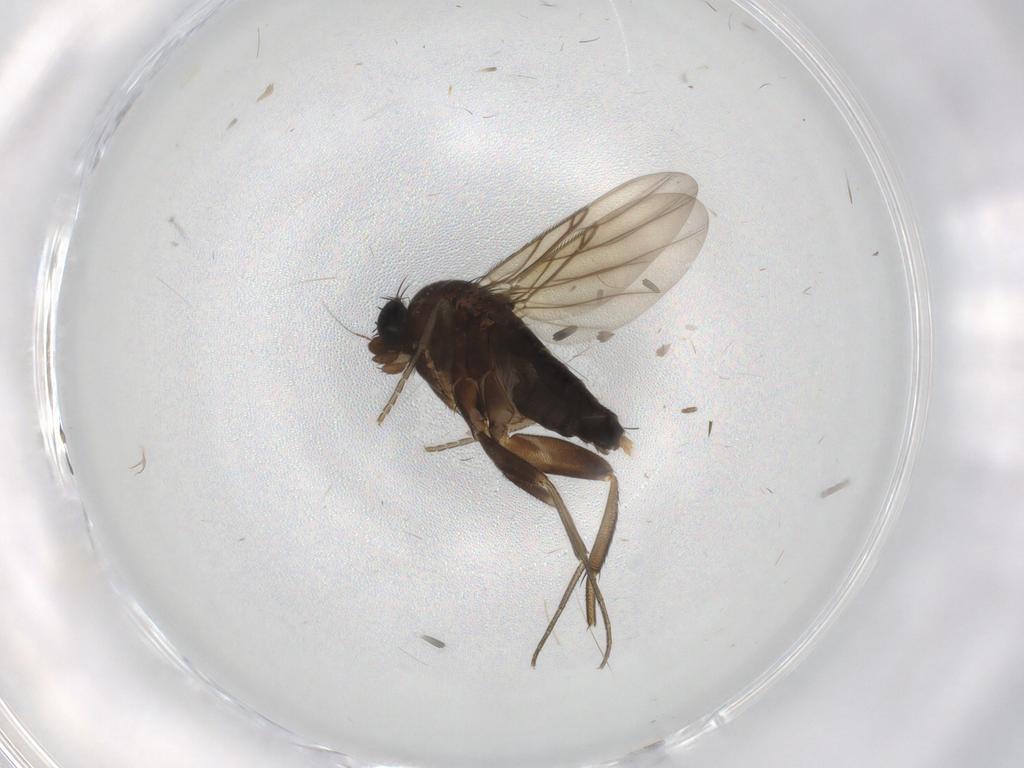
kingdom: Animalia
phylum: Arthropoda
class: Insecta
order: Diptera
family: Phoridae
